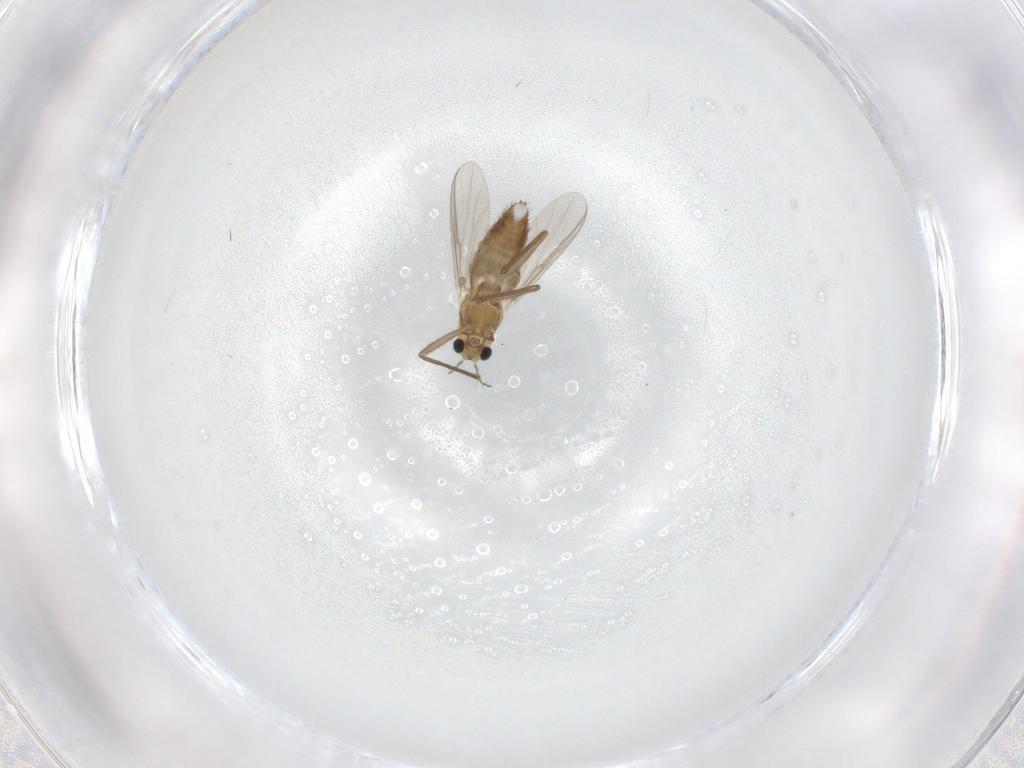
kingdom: Animalia
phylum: Arthropoda
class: Insecta
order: Diptera
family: Chironomidae
